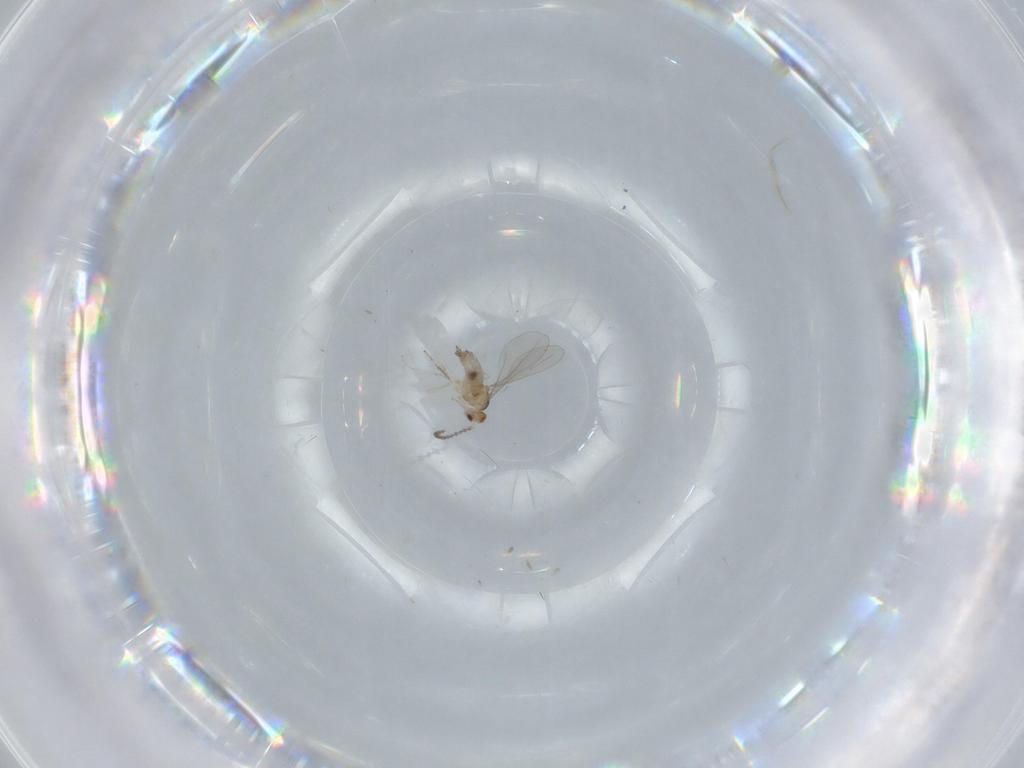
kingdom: Animalia
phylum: Arthropoda
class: Insecta
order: Diptera
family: Cecidomyiidae
